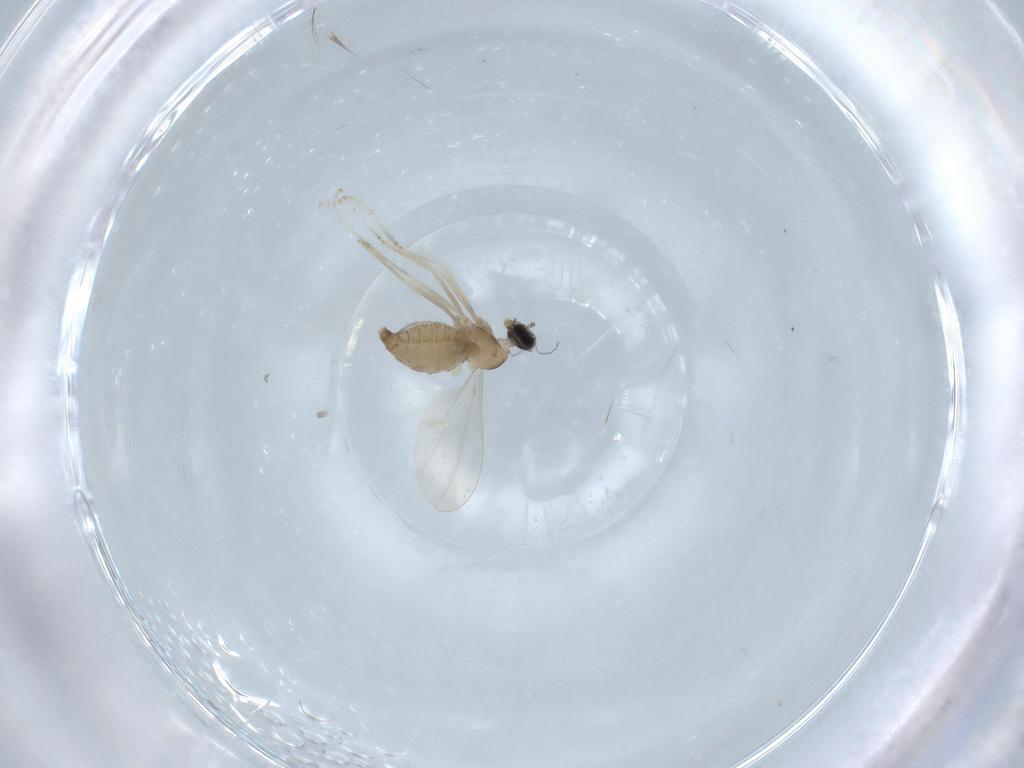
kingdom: Animalia
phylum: Arthropoda
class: Insecta
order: Diptera
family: Cecidomyiidae
